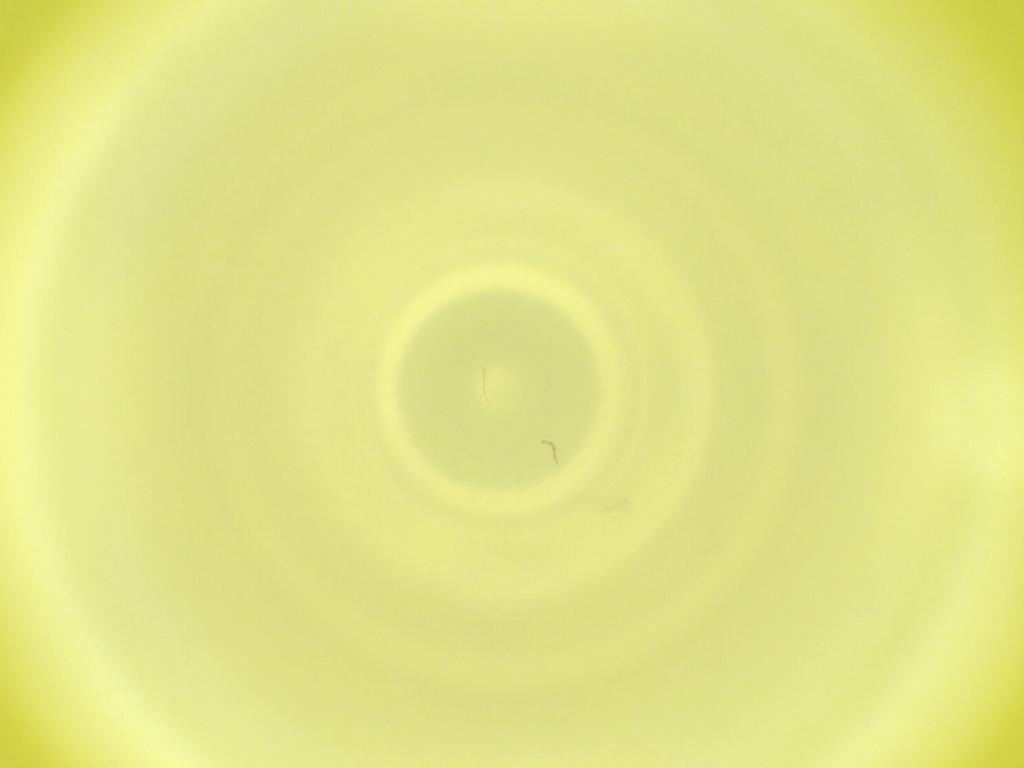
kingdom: Animalia
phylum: Arthropoda
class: Insecta
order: Diptera
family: Cecidomyiidae
